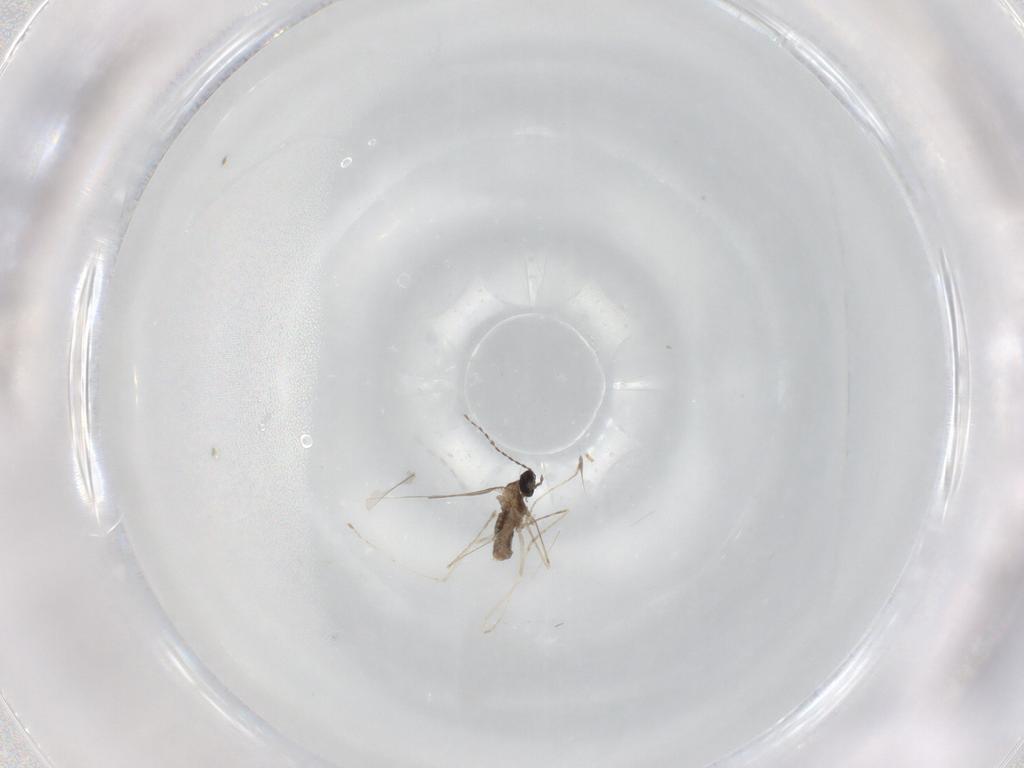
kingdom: Animalia
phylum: Arthropoda
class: Insecta
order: Diptera
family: Cecidomyiidae
